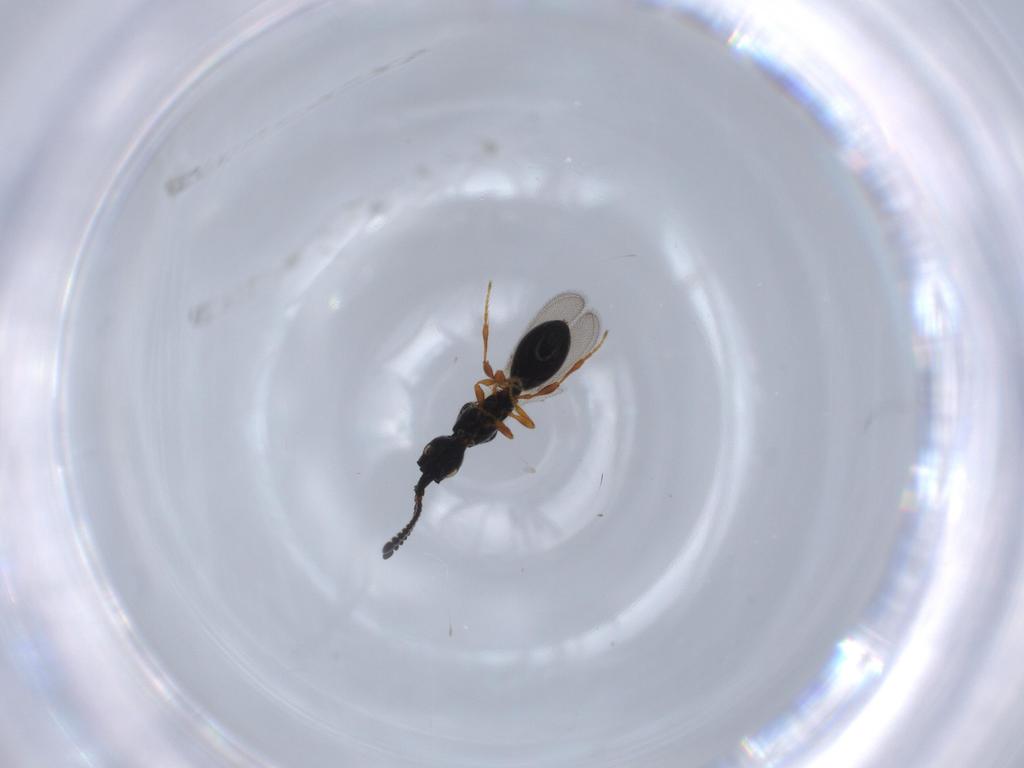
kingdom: Animalia
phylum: Arthropoda
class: Insecta
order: Hymenoptera
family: Diapriidae
